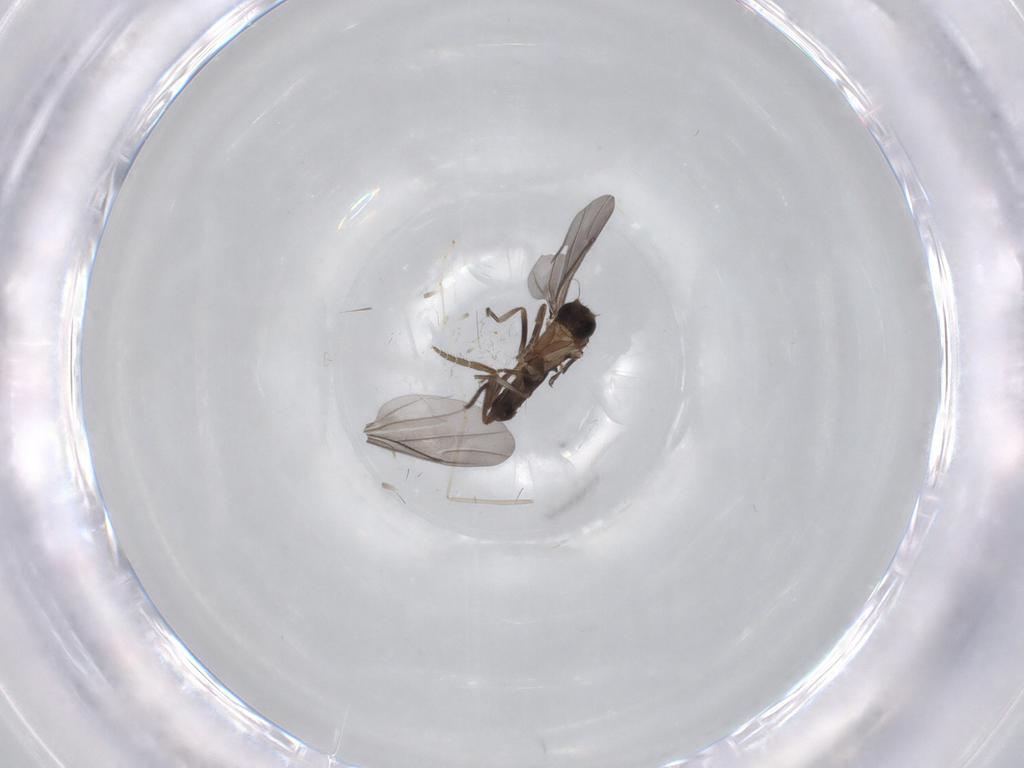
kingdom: Animalia
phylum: Arthropoda
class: Insecta
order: Diptera
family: Phoridae
